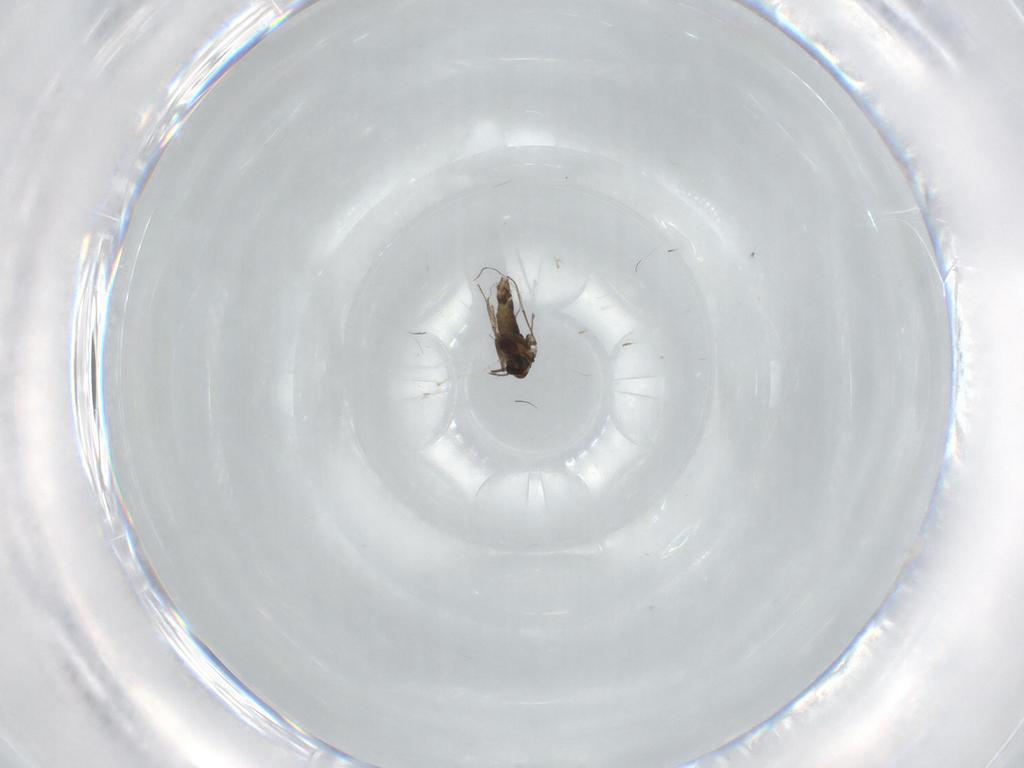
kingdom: Animalia
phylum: Arthropoda
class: Insecta
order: Diptera
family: Chironomidae
